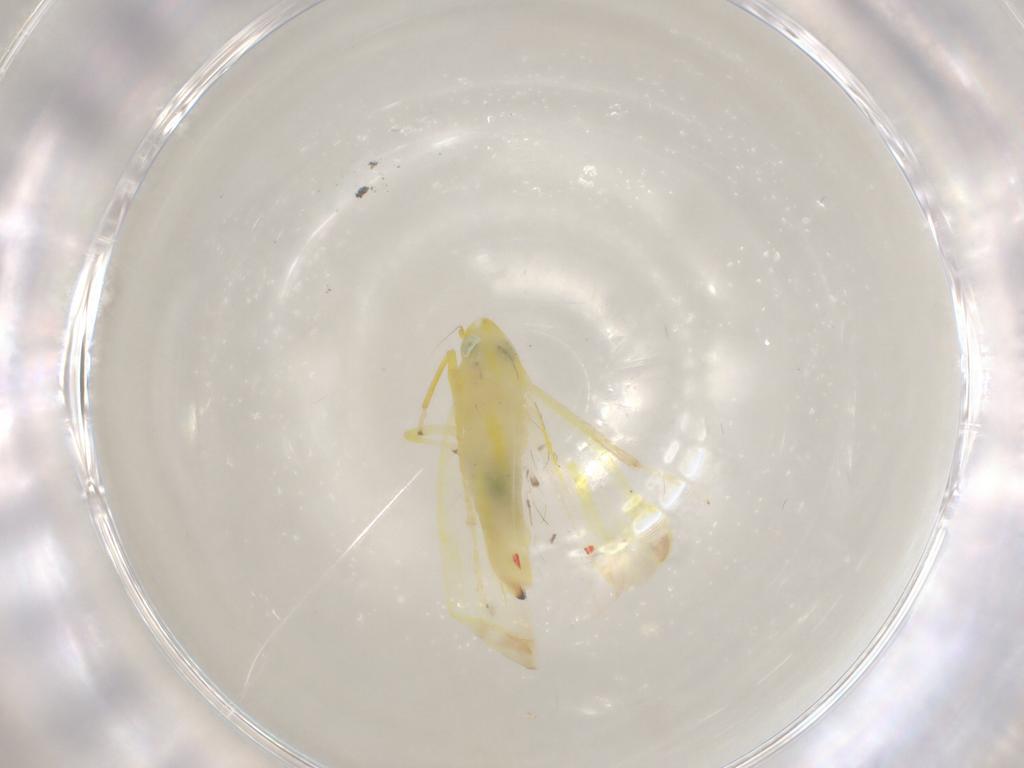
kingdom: Animalia
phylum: Arthropoda
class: Insecta
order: Hemiptera
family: Cicadellidae
